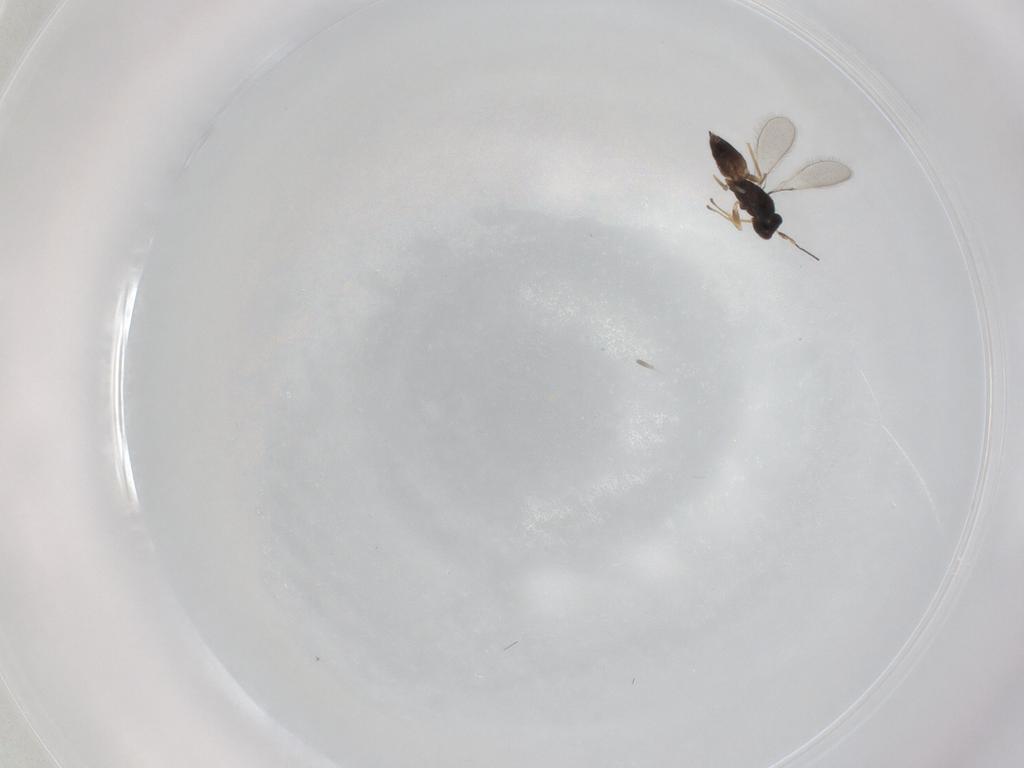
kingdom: Animalia
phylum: Arthropoda
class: Insecta
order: Hymenoptera
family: Mymaridae
